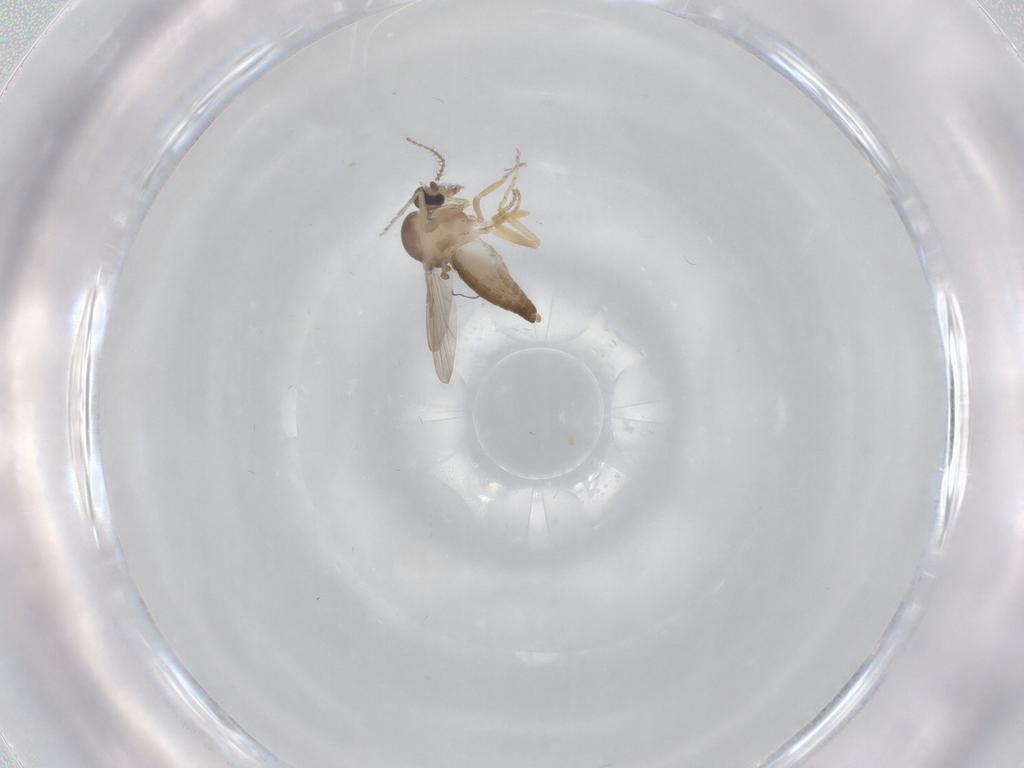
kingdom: Animalia
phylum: Arthropoda
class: Insecta
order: Diptera
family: Ceratopogonidae
